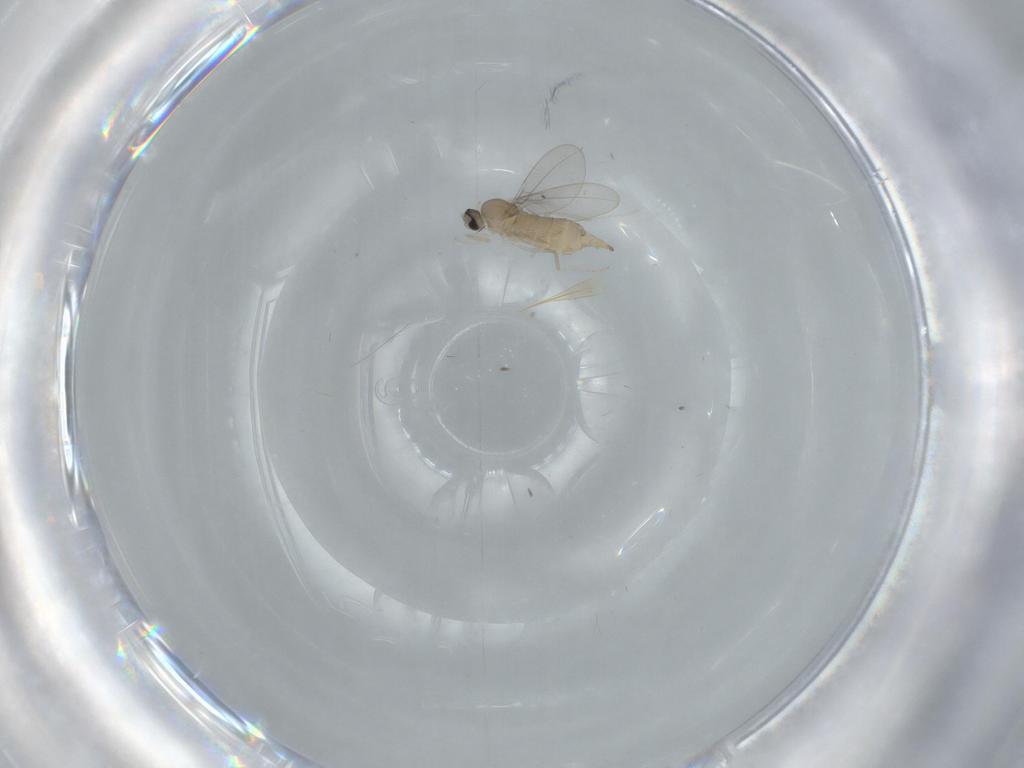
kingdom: Animalia
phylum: Arthropoda
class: Insecta
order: Diptera
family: Cecidomyiidae
